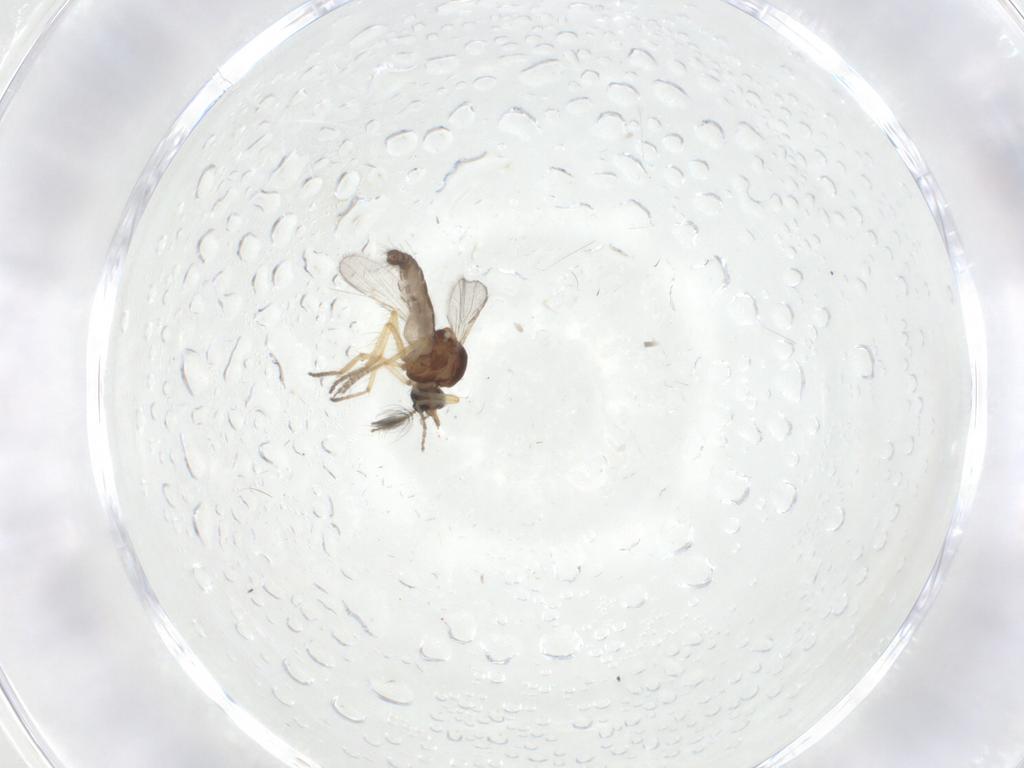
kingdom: Animalia
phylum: Arthropoda
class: Insecta
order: Diptera
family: Ceratopogonidae
